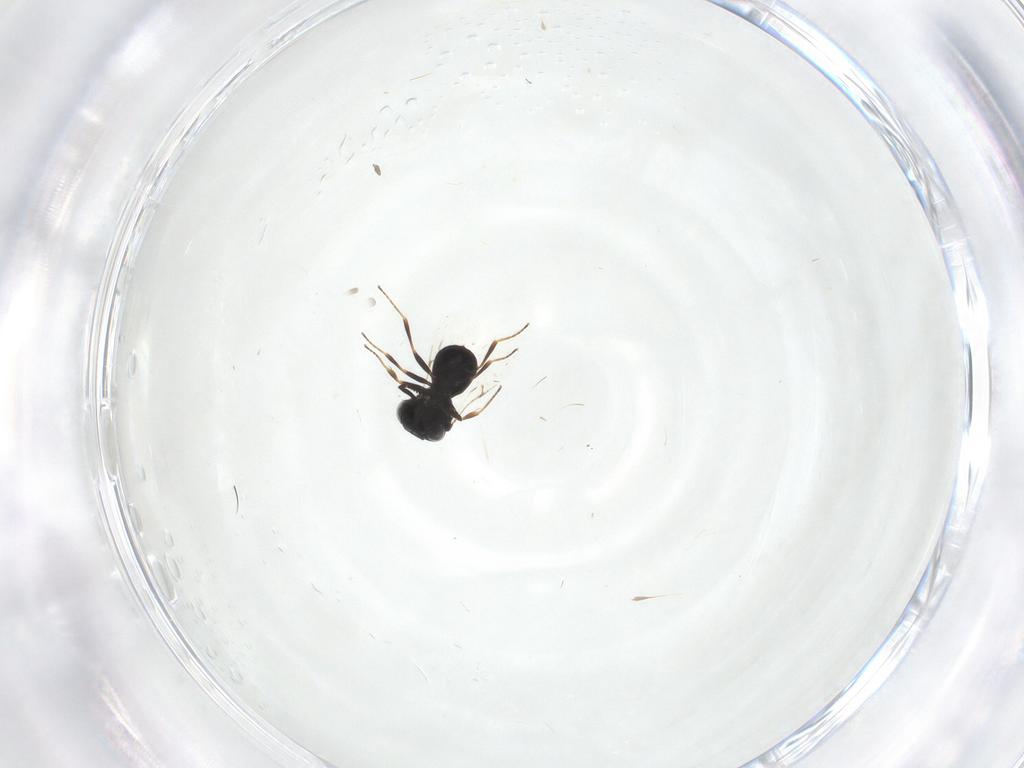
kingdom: Animalia
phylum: Arthropoda
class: Insecta
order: Hymenoptera
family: Scelionidae
